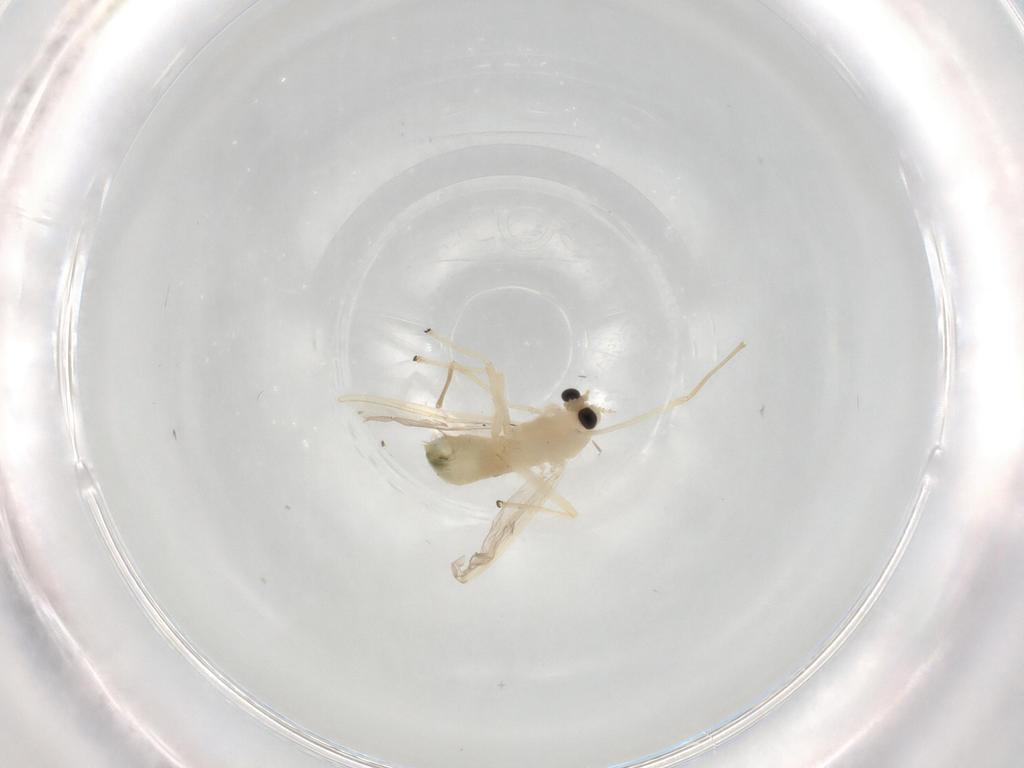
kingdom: Animalia
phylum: Arthropoda
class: Insecta
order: Diptera
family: Chironomidae
